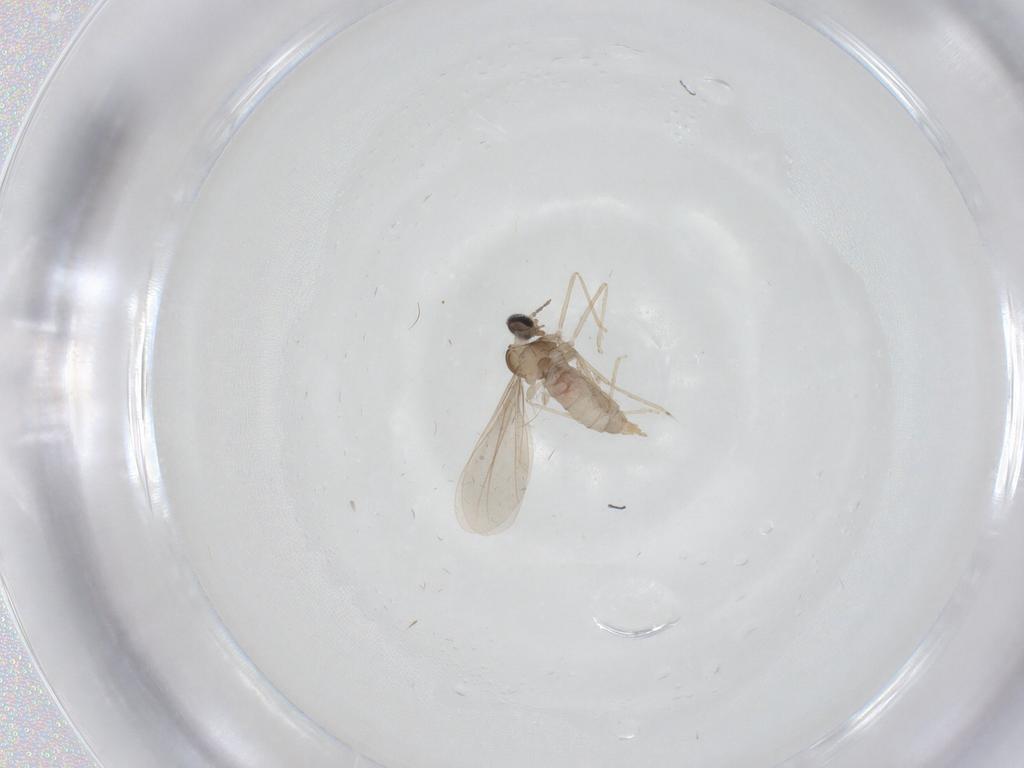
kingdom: Animalia
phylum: Arthropoda
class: Insecta
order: Diptera
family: Cecidomyiidae
